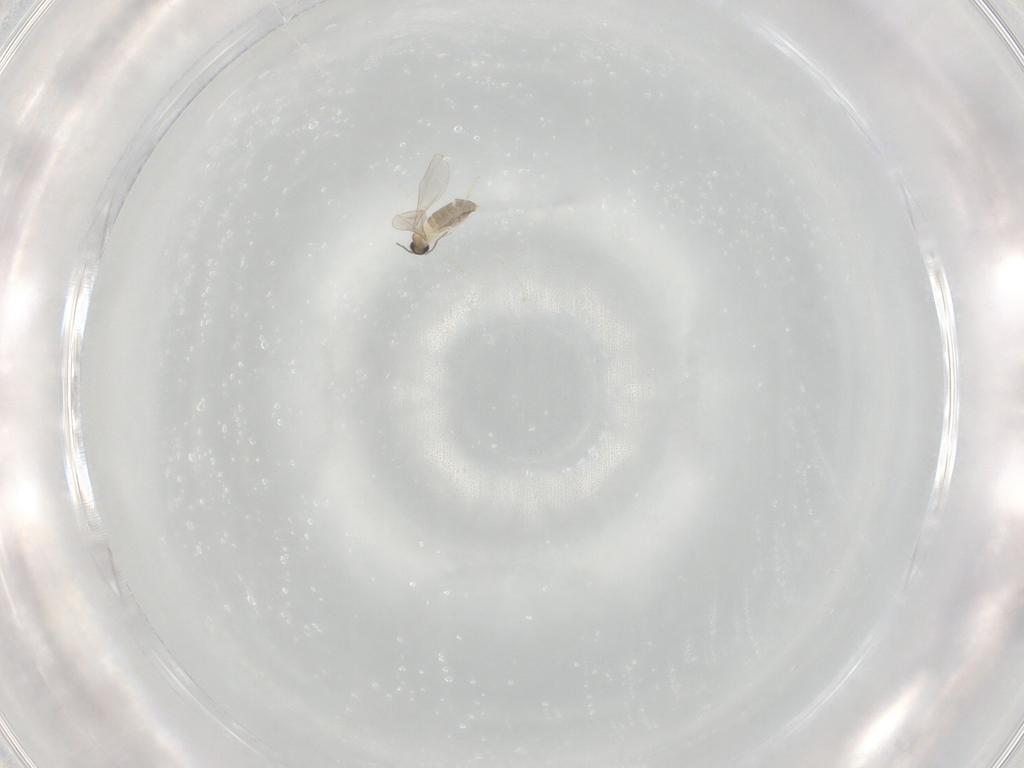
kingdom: Animalia
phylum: Arthropoda
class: Insecta
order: Diptera
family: Cecidomyiidae
